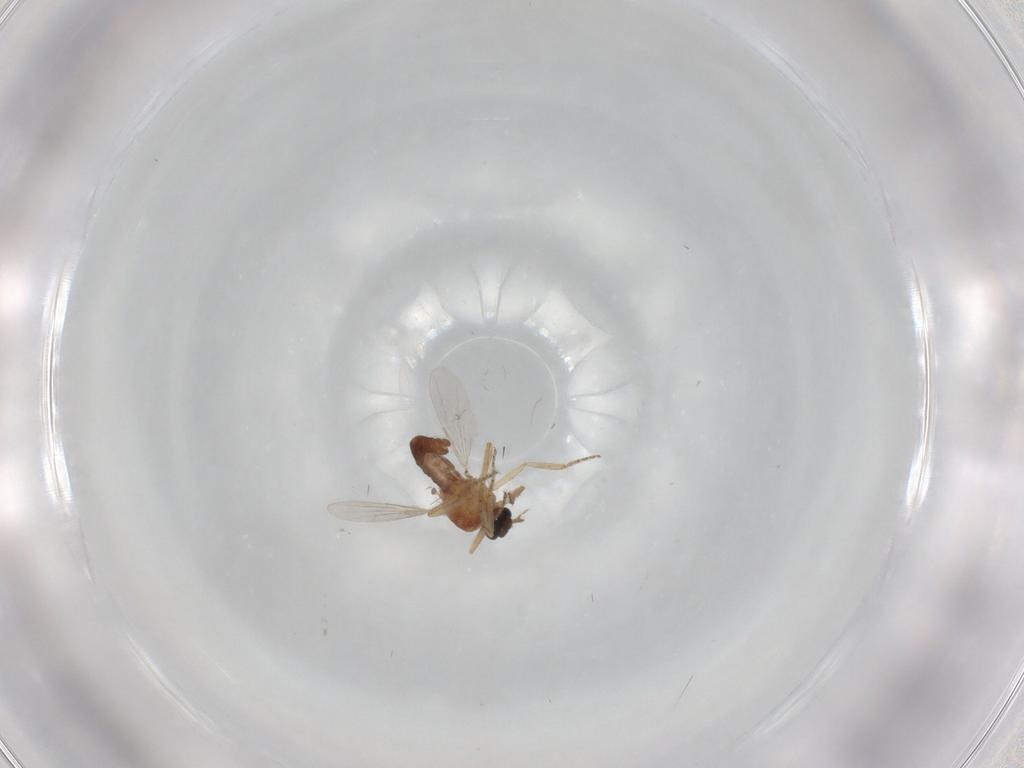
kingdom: Animalia
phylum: Arthropoda
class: Insecta
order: Diptera
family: Ceratopogonidae
